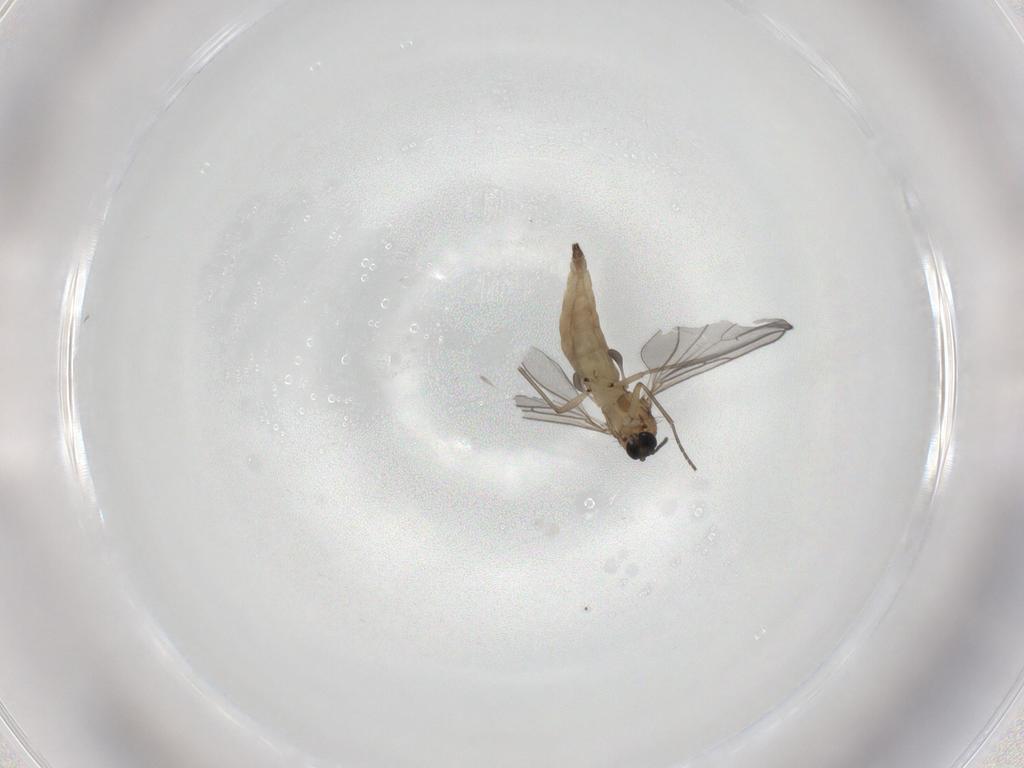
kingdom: Animalia
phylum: Arthropoda
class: Insecta
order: Diptera
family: Sciaridae
